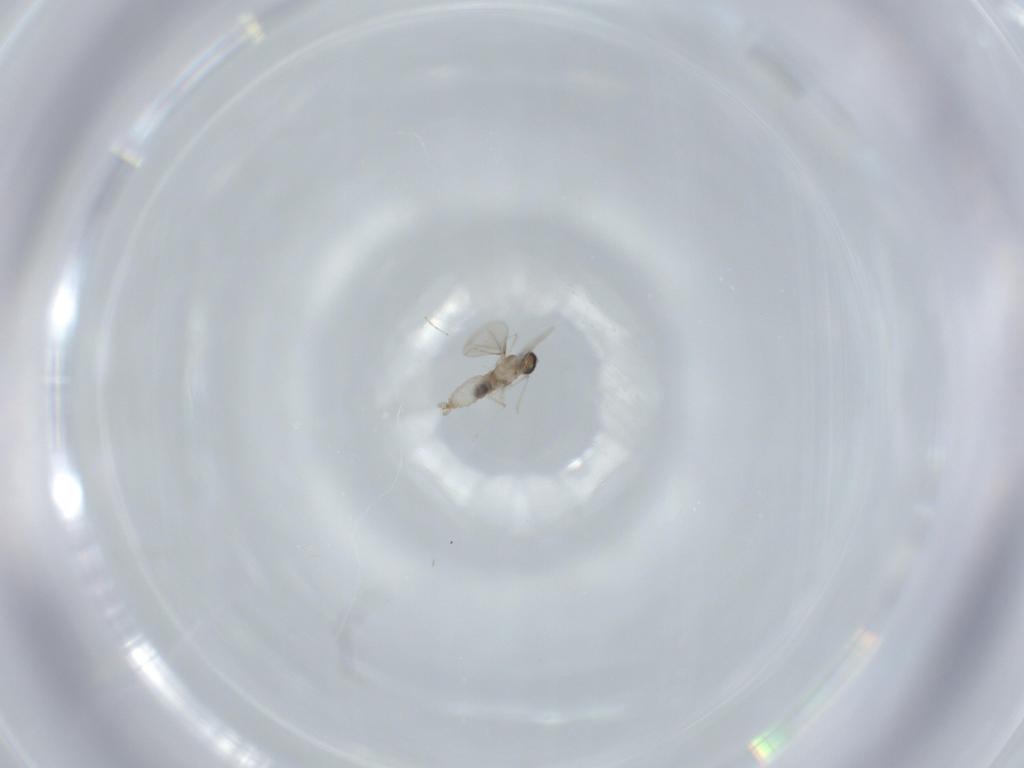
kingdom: Animalia
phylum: Arthropoda
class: Insecta
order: Diptera
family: Cecidomyiidae
